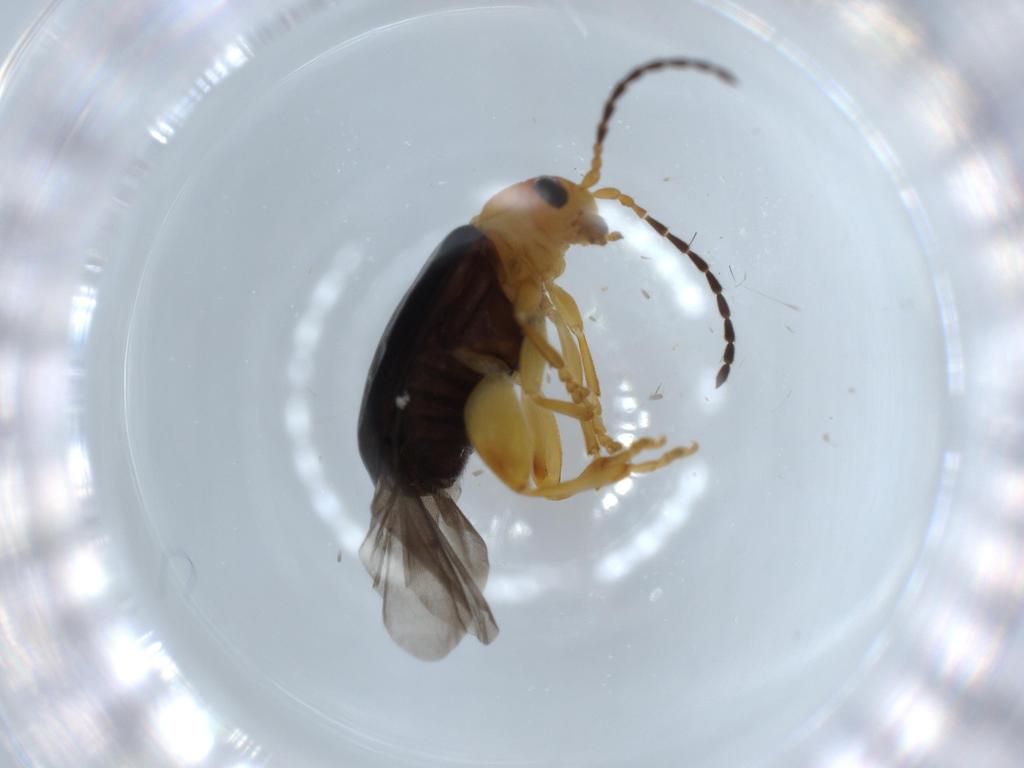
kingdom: Animalia
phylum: Arthropoda
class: Insecta
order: Coleoptera
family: Chrysomelidae
